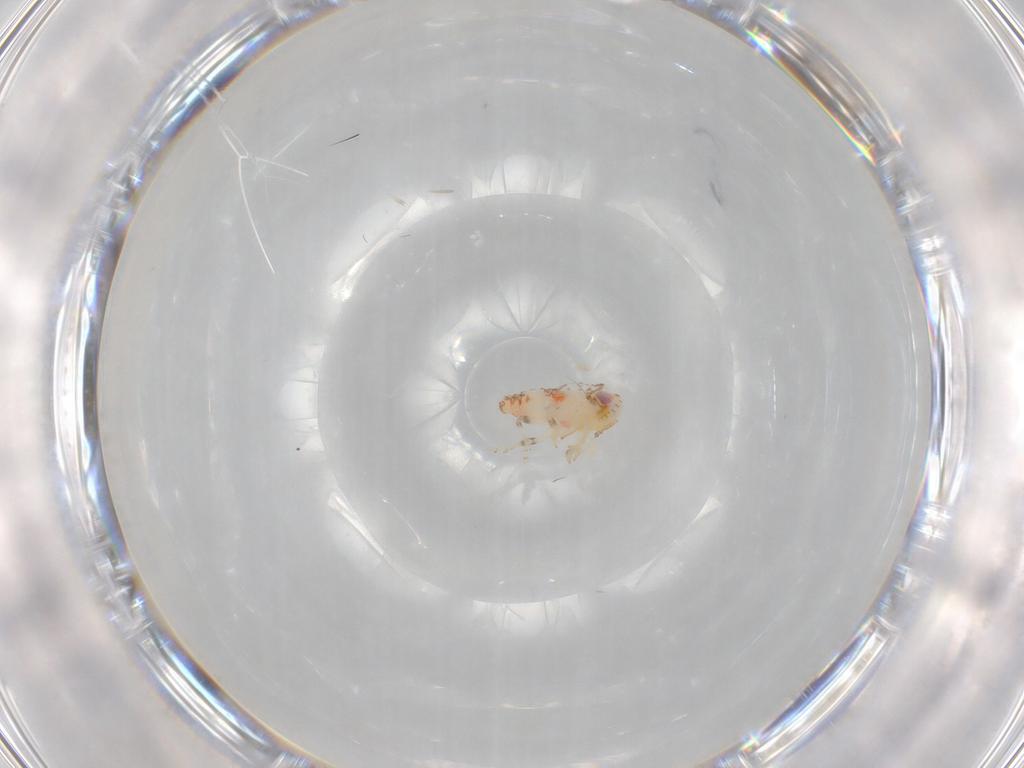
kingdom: Animalia
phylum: Arthropoda
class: Insecta
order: Hemiptera
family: Nogodinidae
